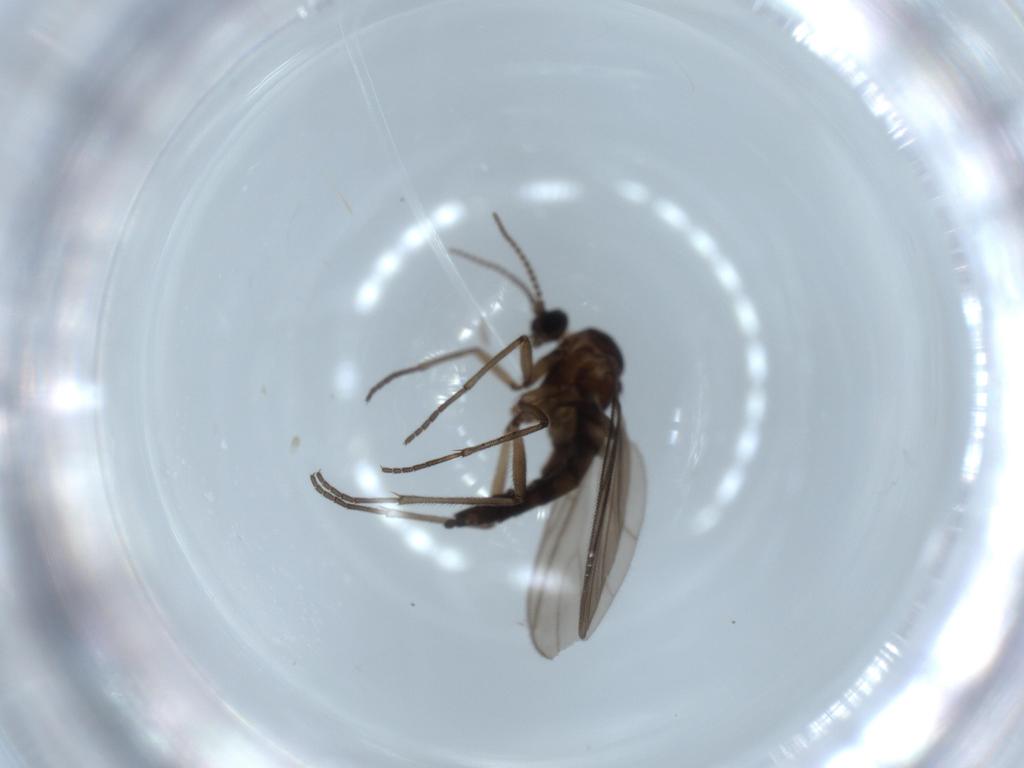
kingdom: Animalia
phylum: Arthropoda
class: Insecta
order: Diptera
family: Sciaridae
